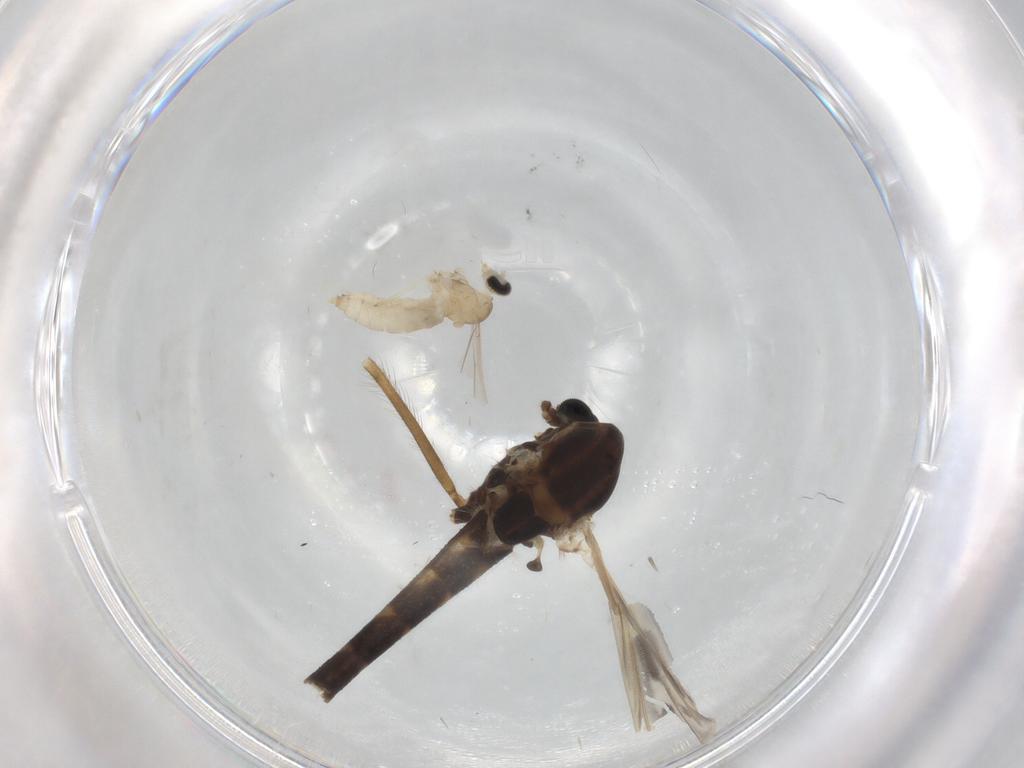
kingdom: Animalia
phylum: Arthropoda
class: Insecta
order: Diptera
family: Chironomidae
